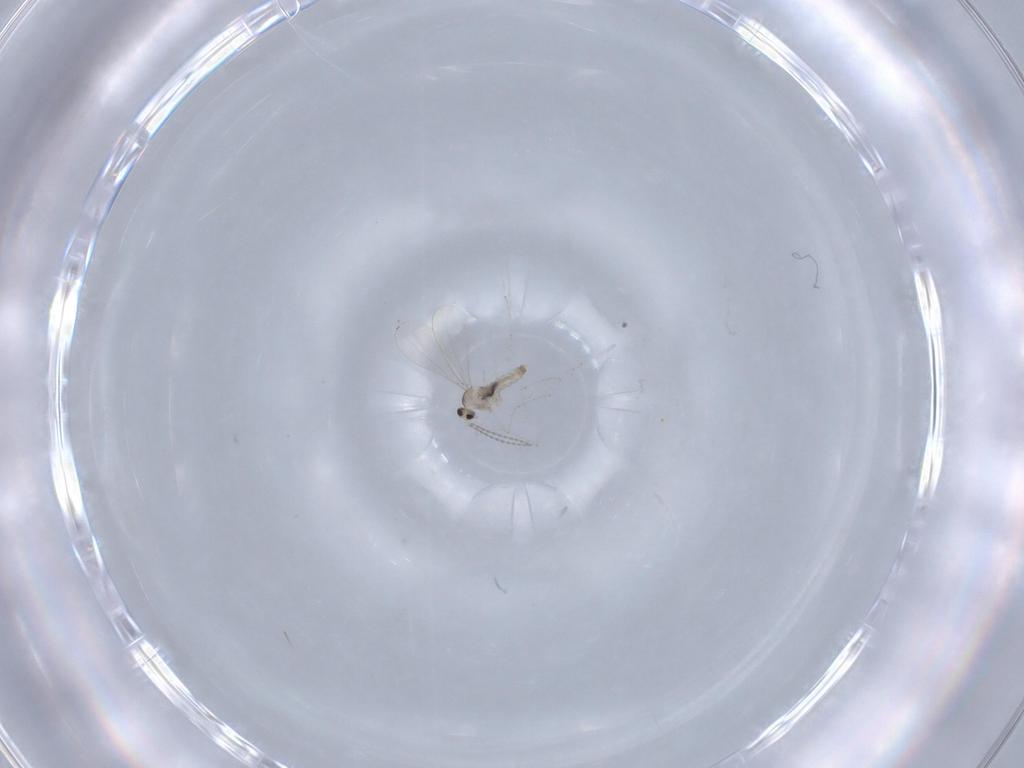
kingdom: Animalia
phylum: Arthropoda
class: Insecta
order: Diptera
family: Cecidomyiidae
